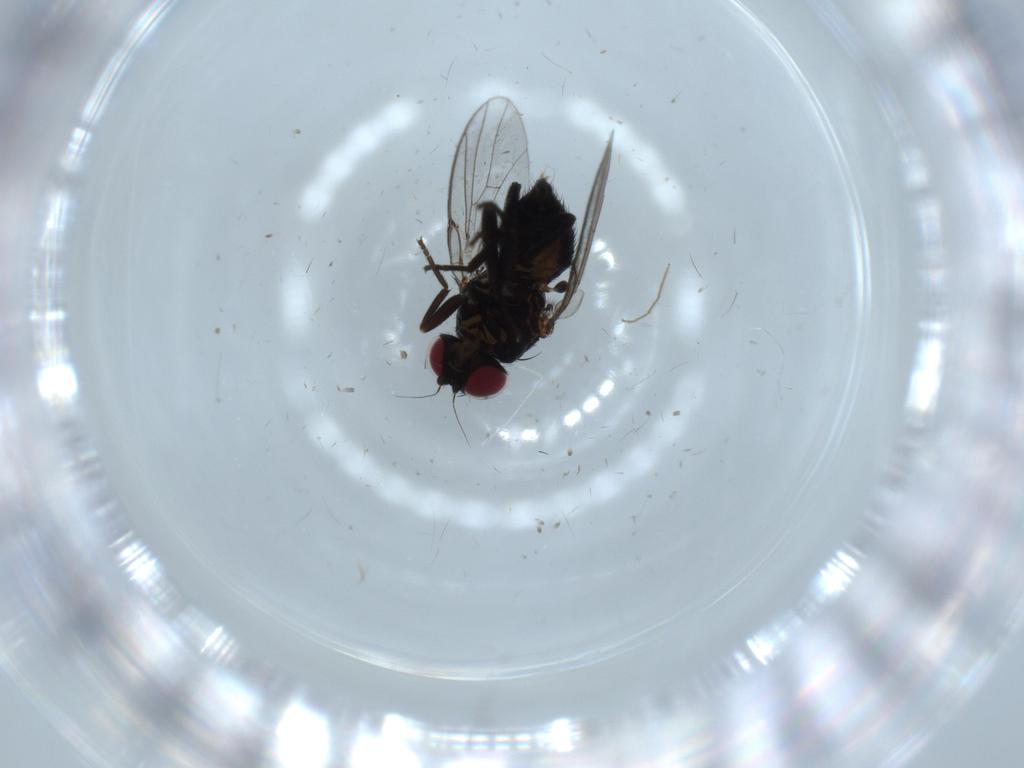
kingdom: Animalia
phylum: Arthropoda
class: Insecta
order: Diptera
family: Agromyzidae
